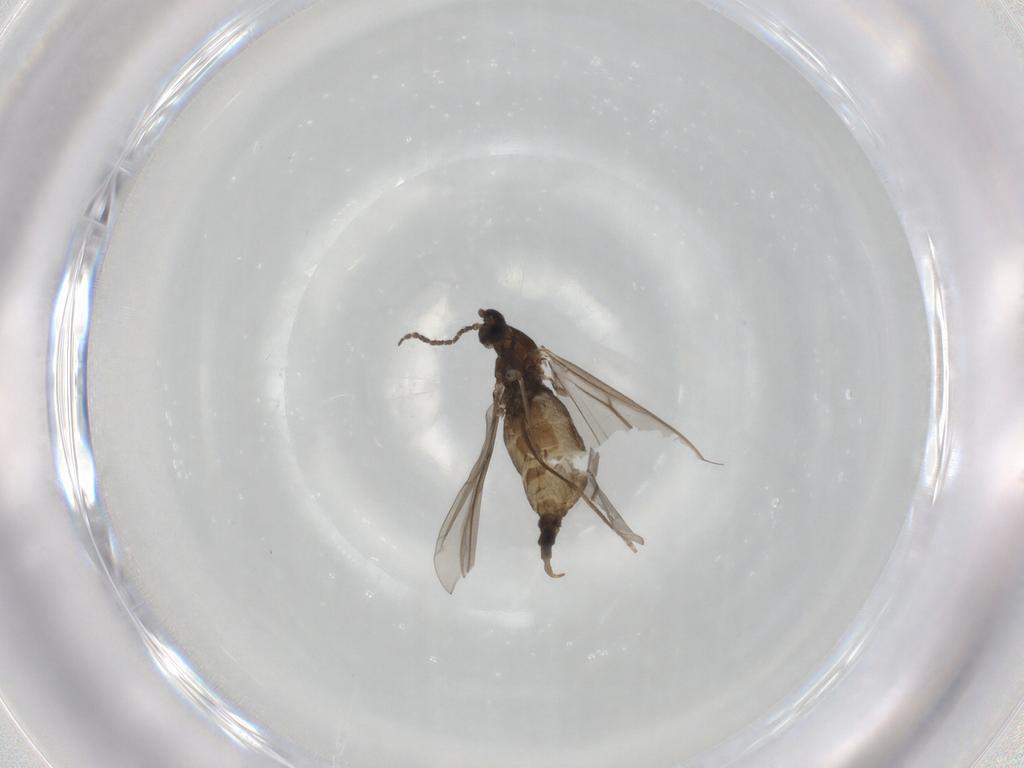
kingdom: Animalia
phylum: Arthropoda
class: Insecta
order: Diptera
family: Cecidomyiidae
